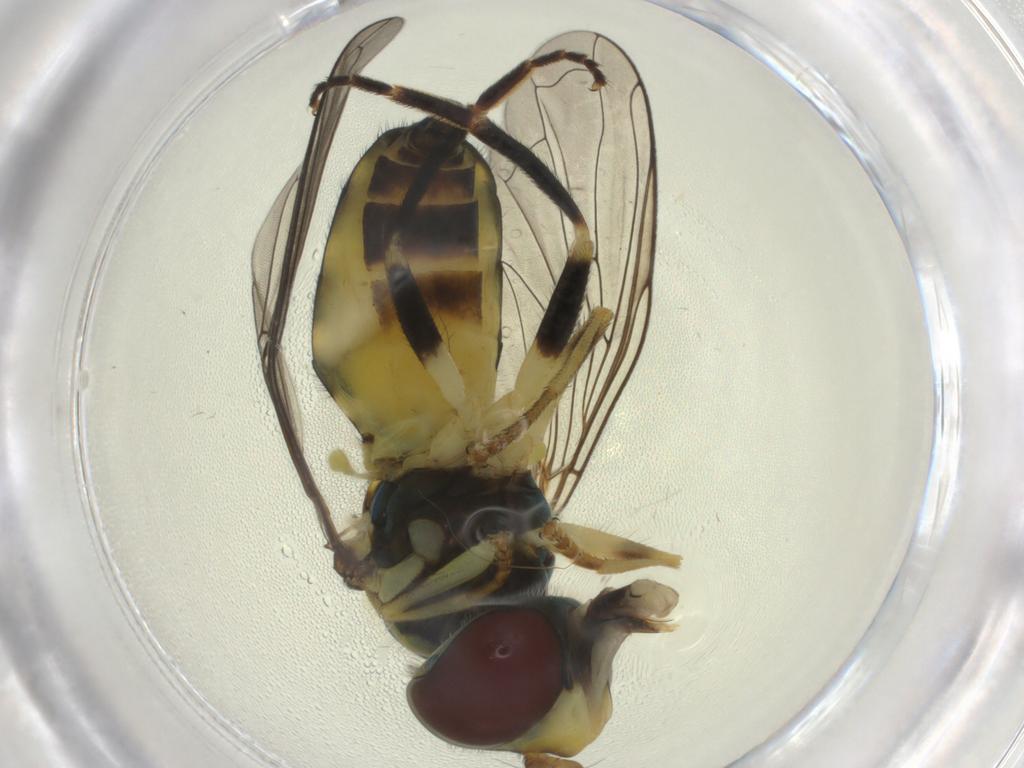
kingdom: Animalia
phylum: Arthropoda
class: Insecta
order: Diptera
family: Syrphidae
